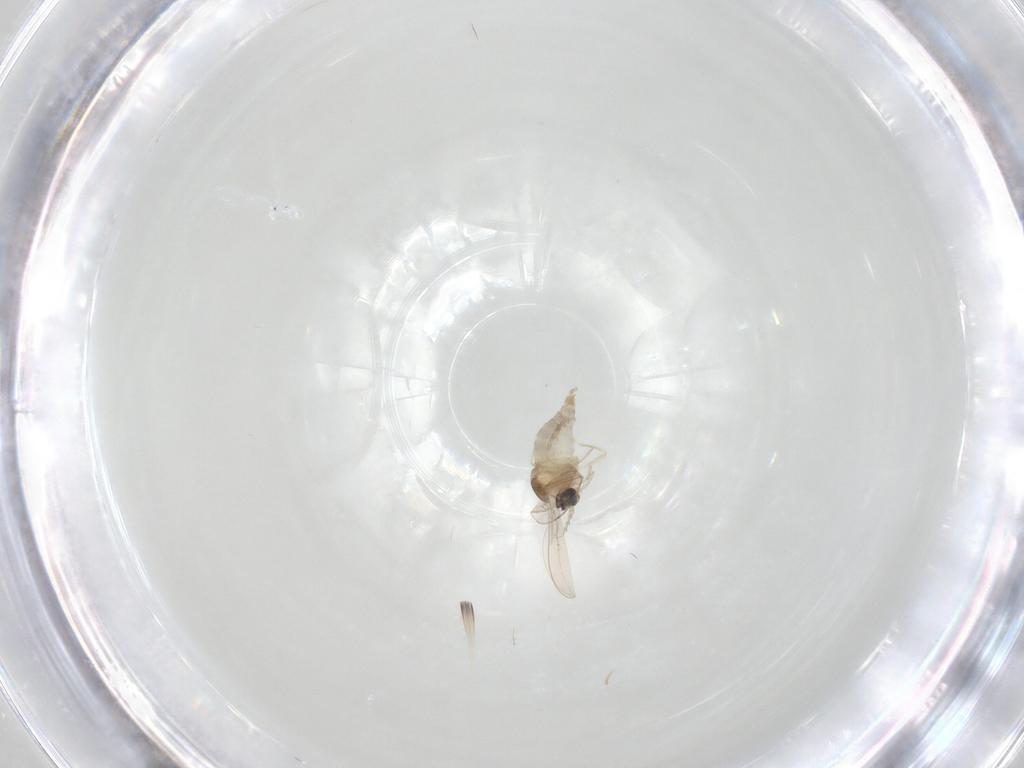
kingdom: Animalia
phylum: Arthropoda
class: Insecta
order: Diptera
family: Cecidomyiidae
